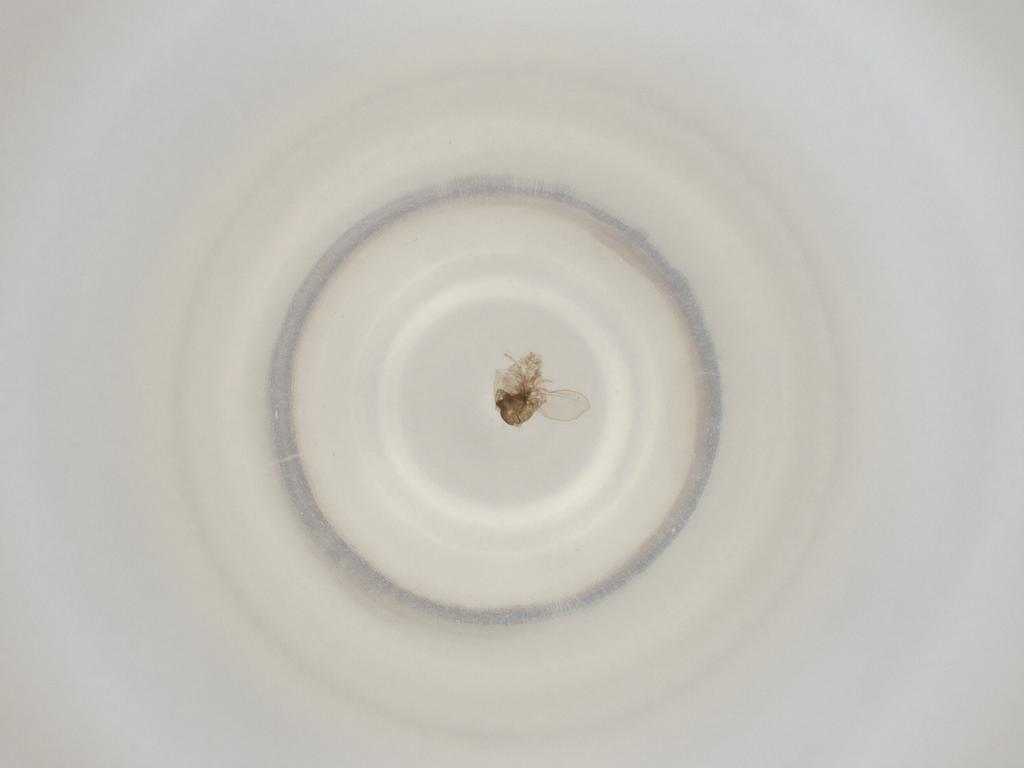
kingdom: Animalia
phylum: Arthropoda
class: Insecta
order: Diptera
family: Cecidomyiidae
